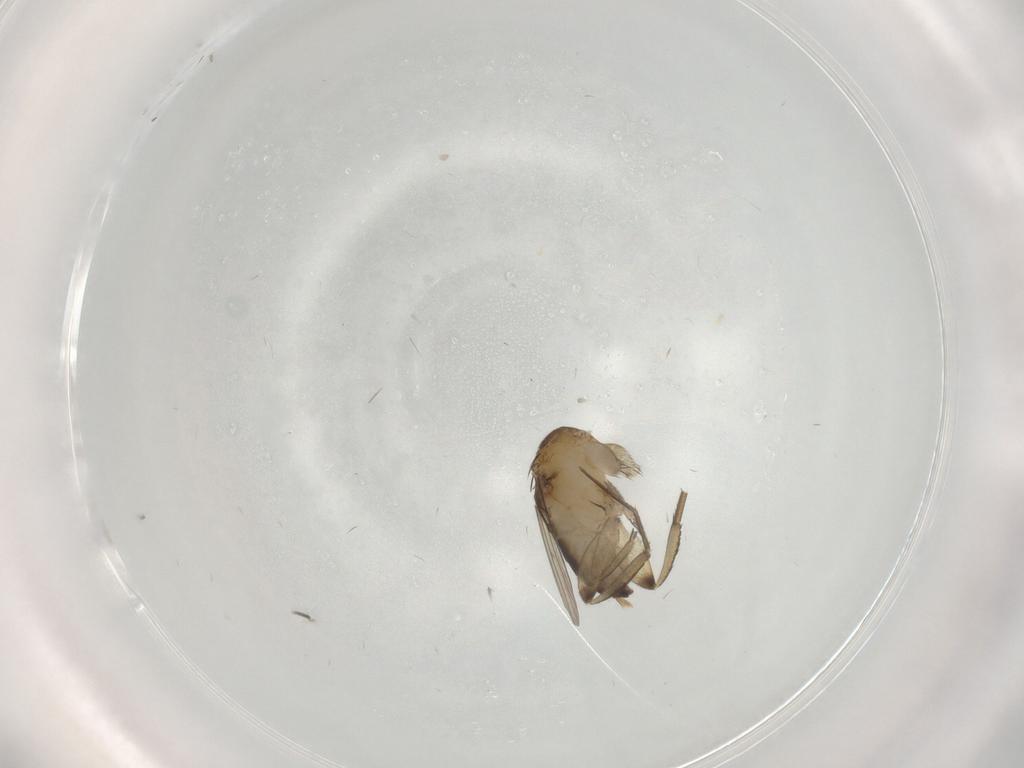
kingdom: Animalia
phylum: Arthropoda
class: Insecta
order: Diptera
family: Phoridae
